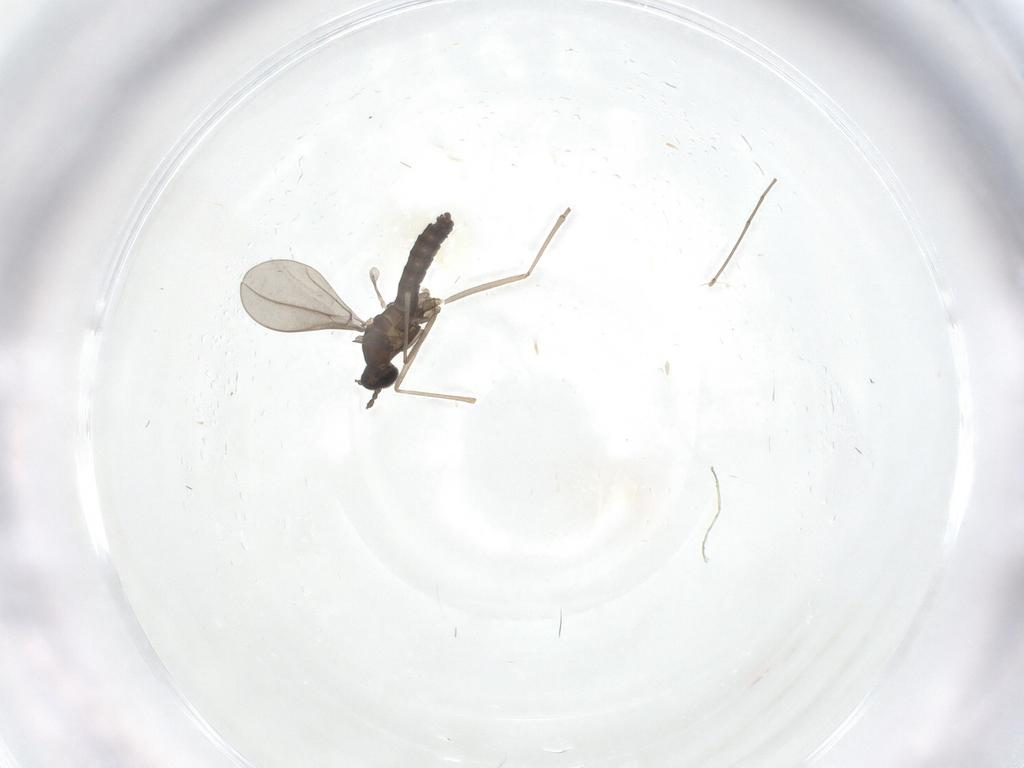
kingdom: Animalia
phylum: Arthropoda
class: Insecta
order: Diptera
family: Cecidomyiidae
